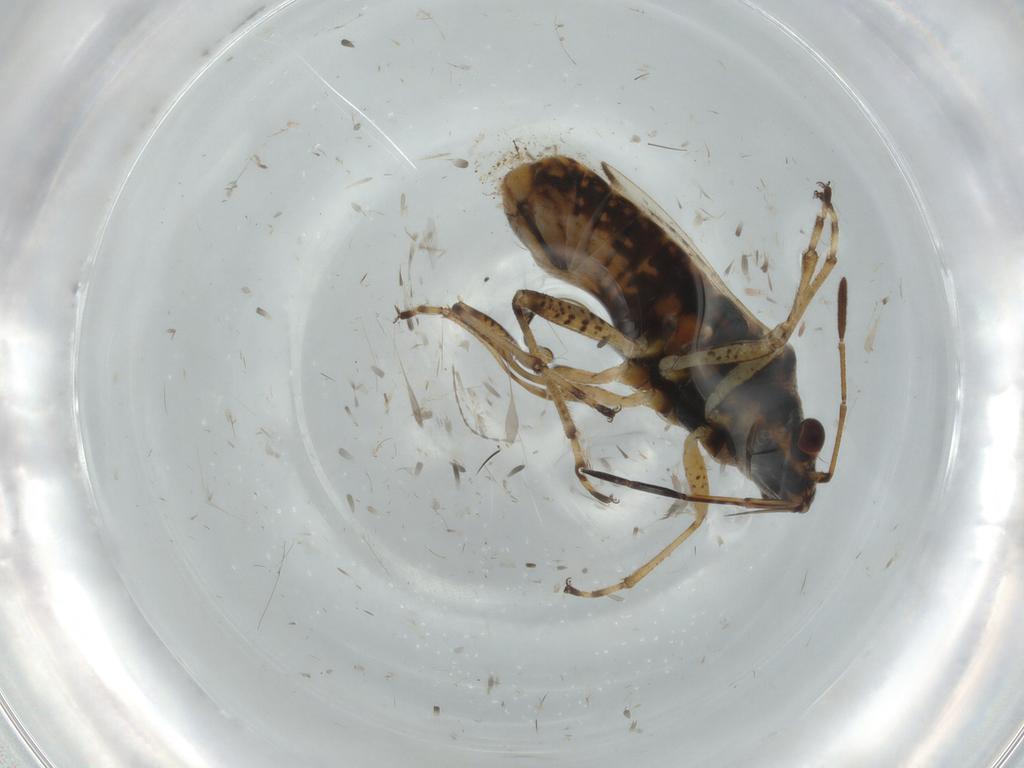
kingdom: Animalia
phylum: Arthropoda
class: Insecta
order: Hemiptera
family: Lygaeidae
